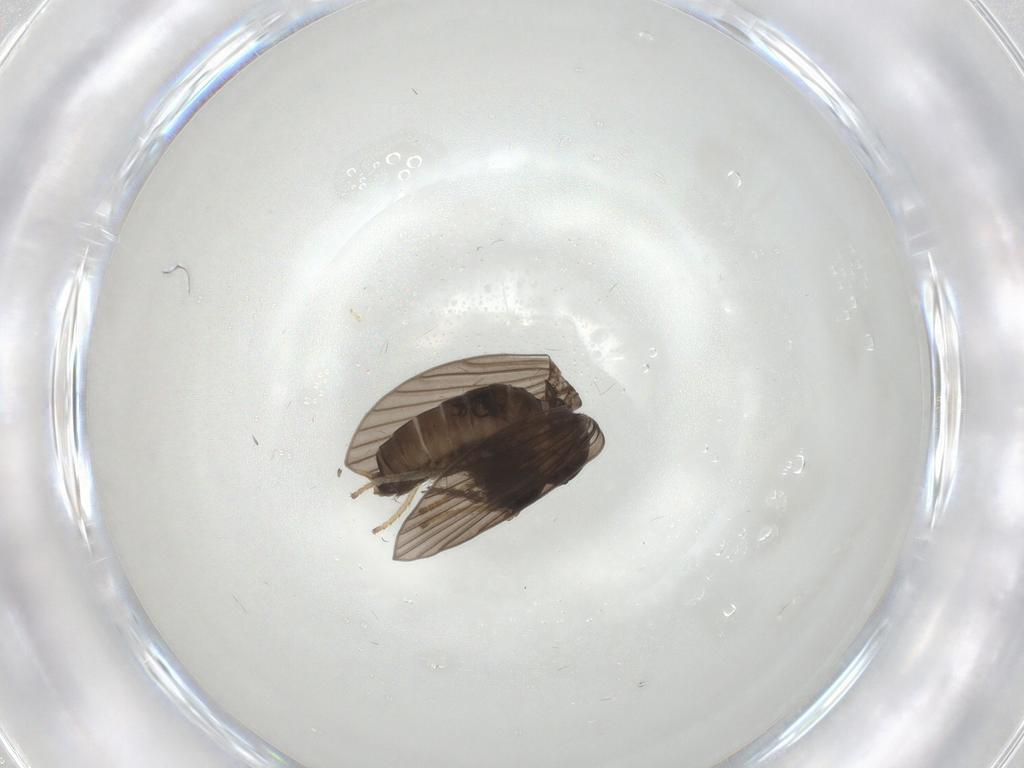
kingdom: Animalia
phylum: Arthropoda
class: Insecta
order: Diptera
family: Psychodidae
